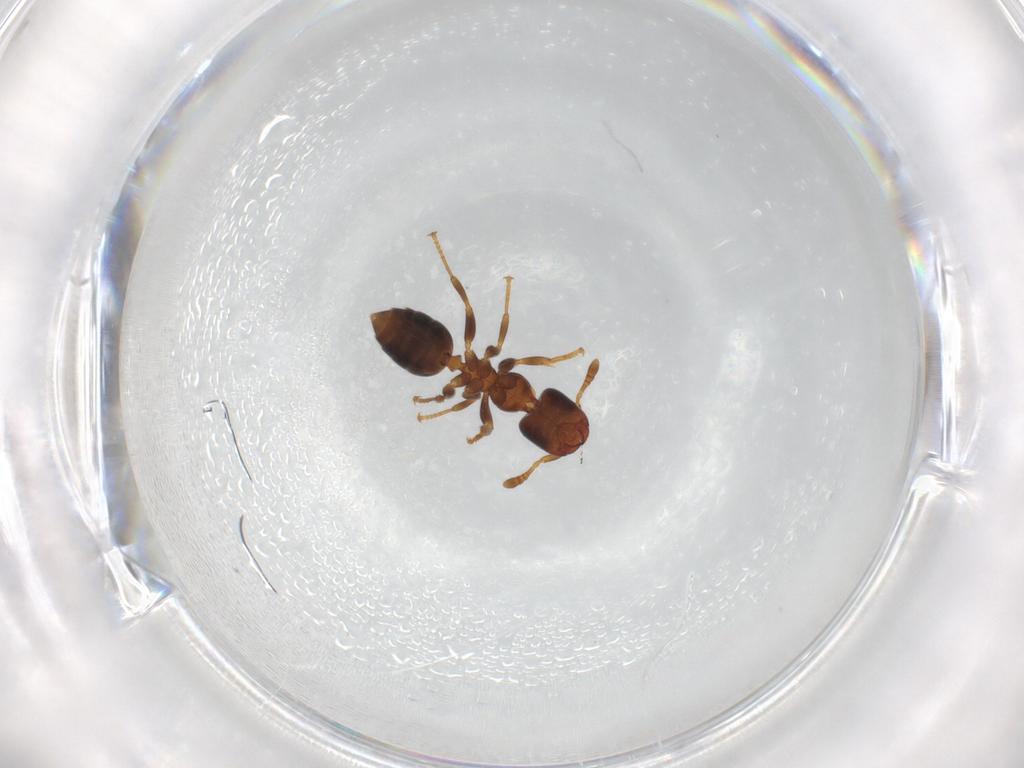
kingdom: Animalia
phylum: Arthropoda
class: Insecta
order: Hymenoptera
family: Formicidae
